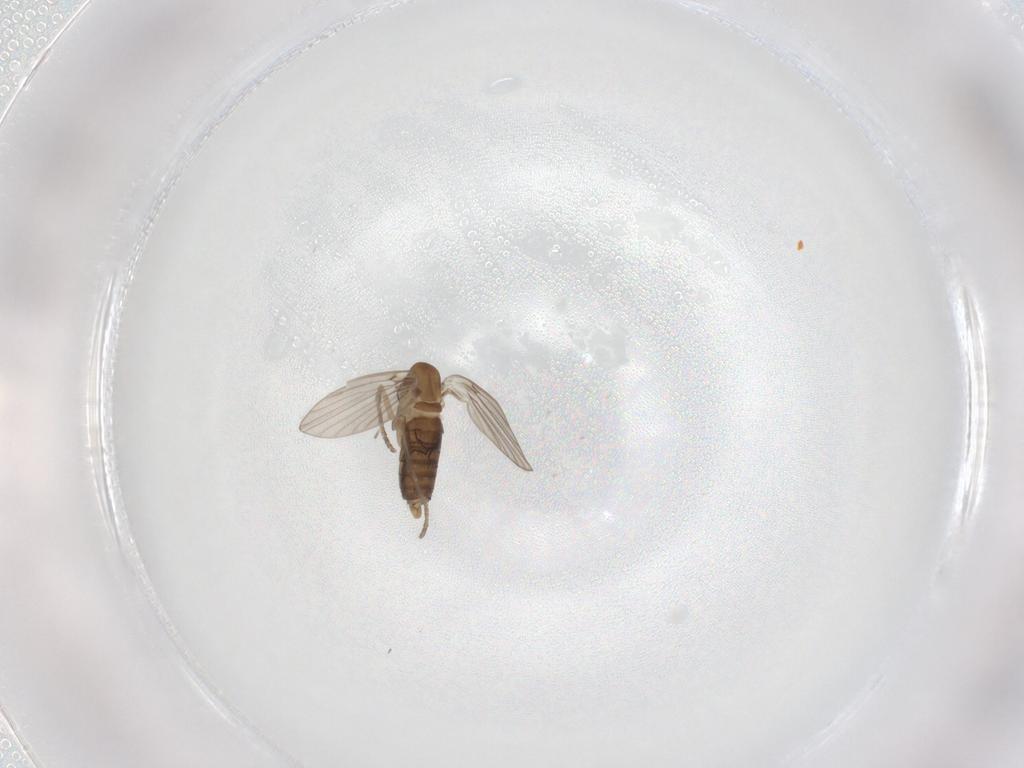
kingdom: Animalia
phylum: Arthropoda
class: Insecta
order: Diptera
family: Dolichopodidae
